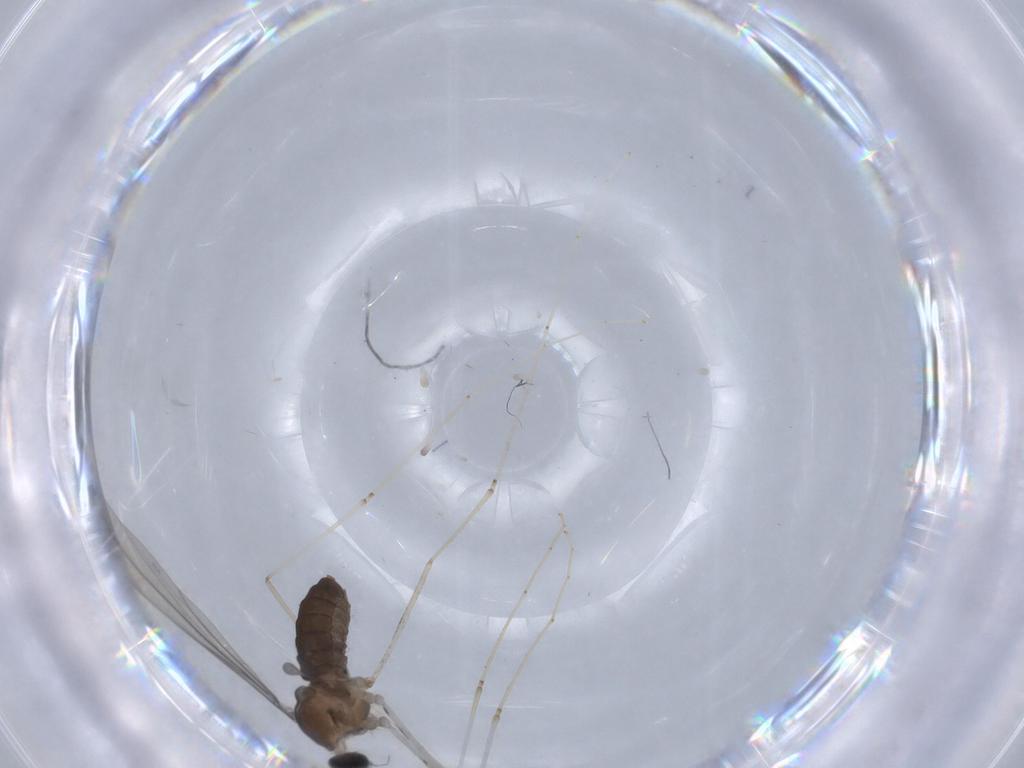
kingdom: Animalia
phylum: Arthropoda
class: Insecta
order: Diptera
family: Cecidomyiidae
